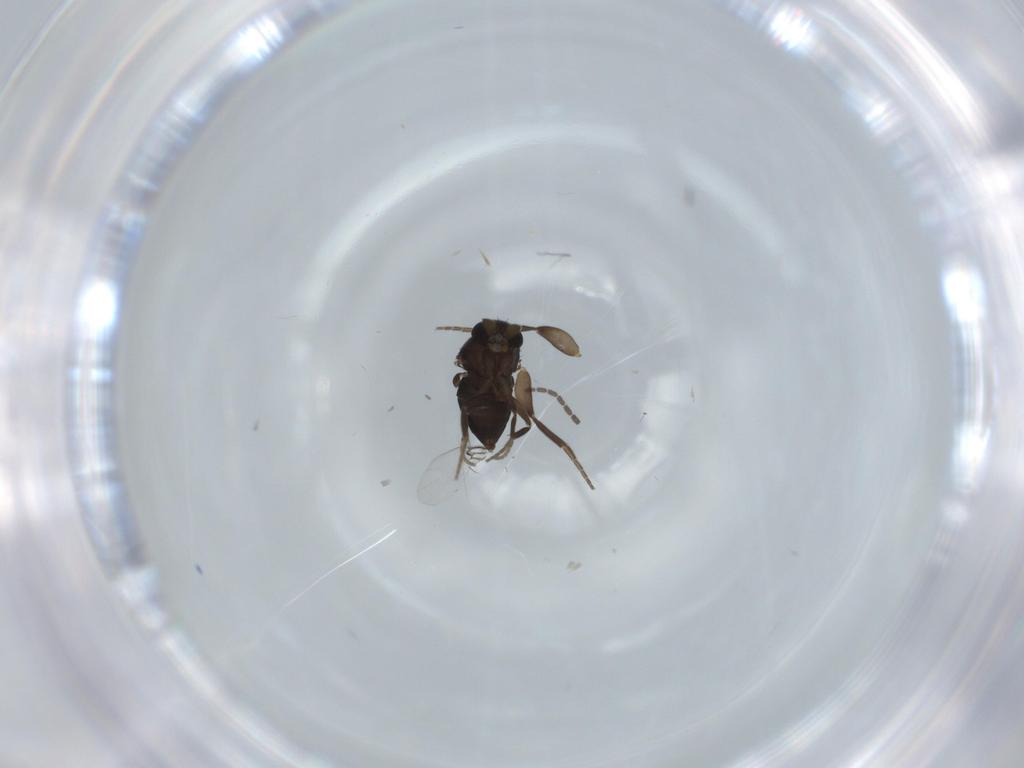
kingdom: Animalia
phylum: Arthropoda
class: Insecta
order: Diptera
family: Phoridae
